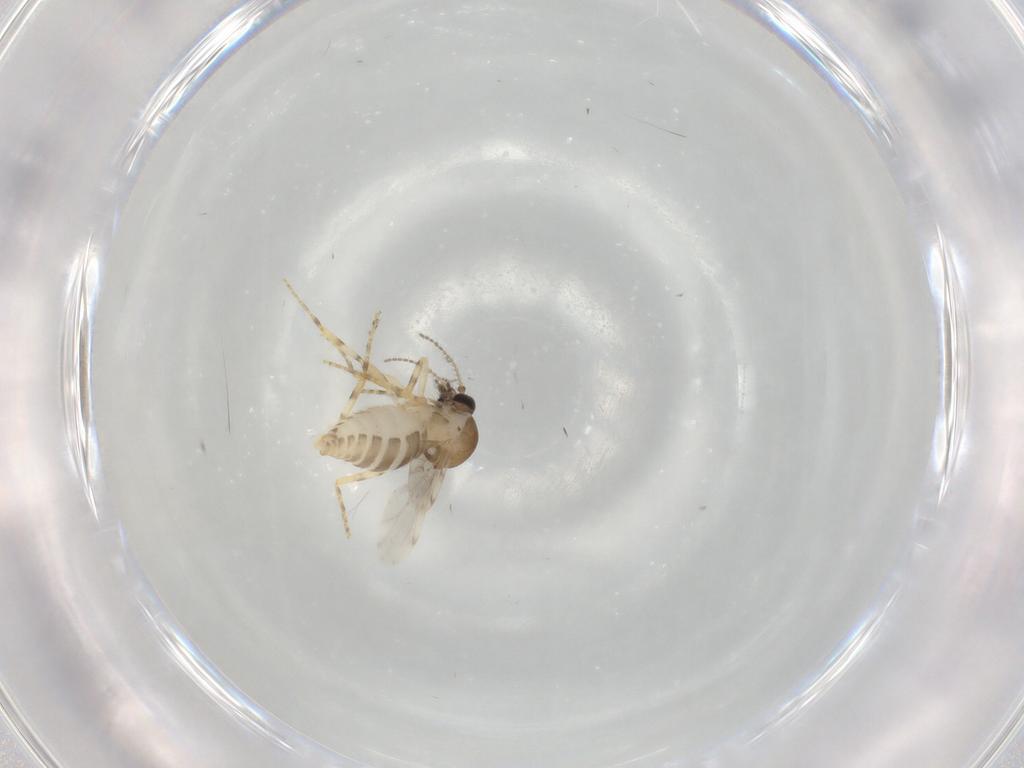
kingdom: Animalia
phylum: Arthropoda
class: Insecta
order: Diptera
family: Ceratopogonidae
